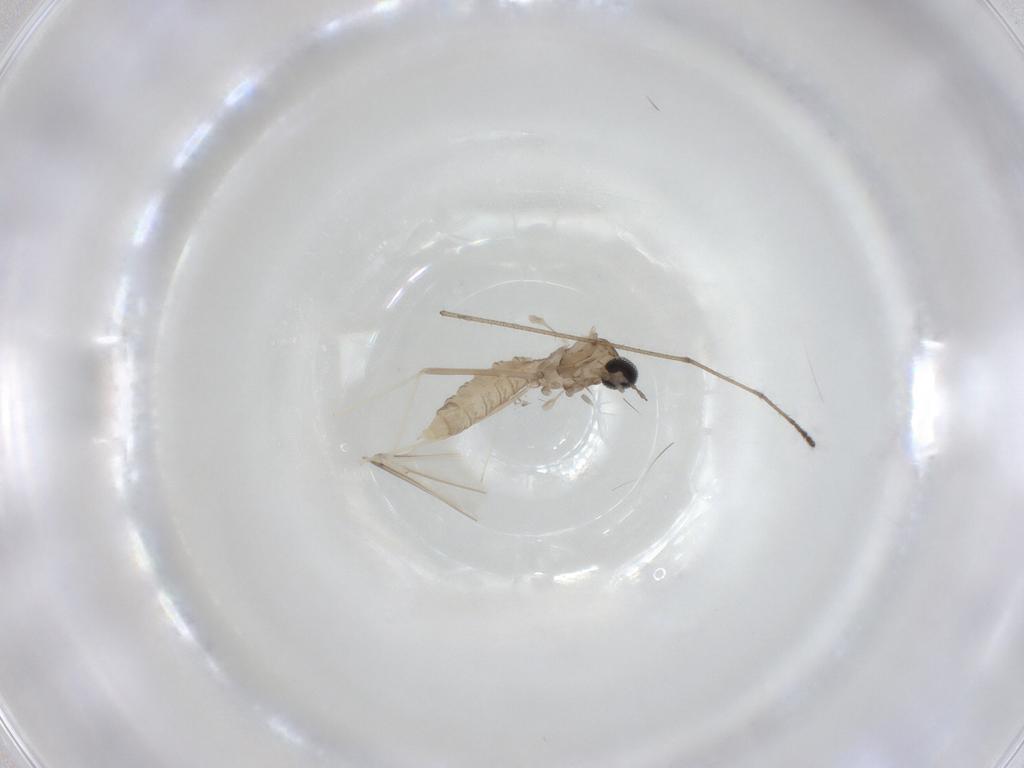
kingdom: Animalia
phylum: Arthropoda
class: Insecta
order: Diptera
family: Cecidomyiidae
